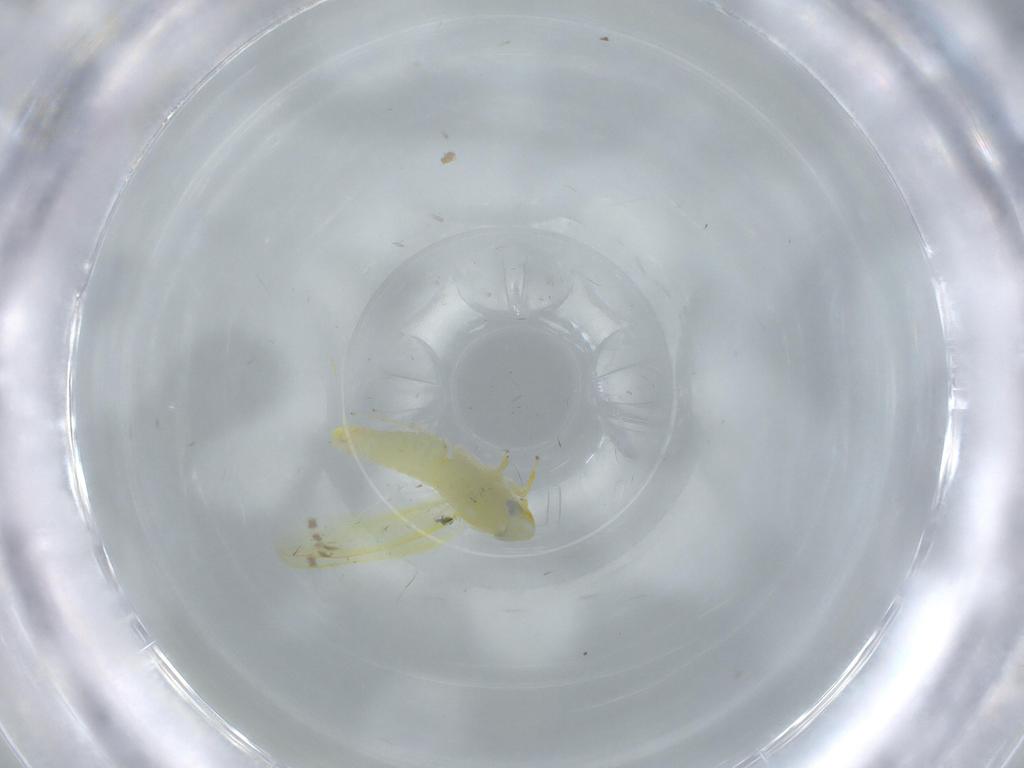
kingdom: Animalia
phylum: Arthropoda
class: Insecta
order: Hemiptera
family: Cicadellidae
